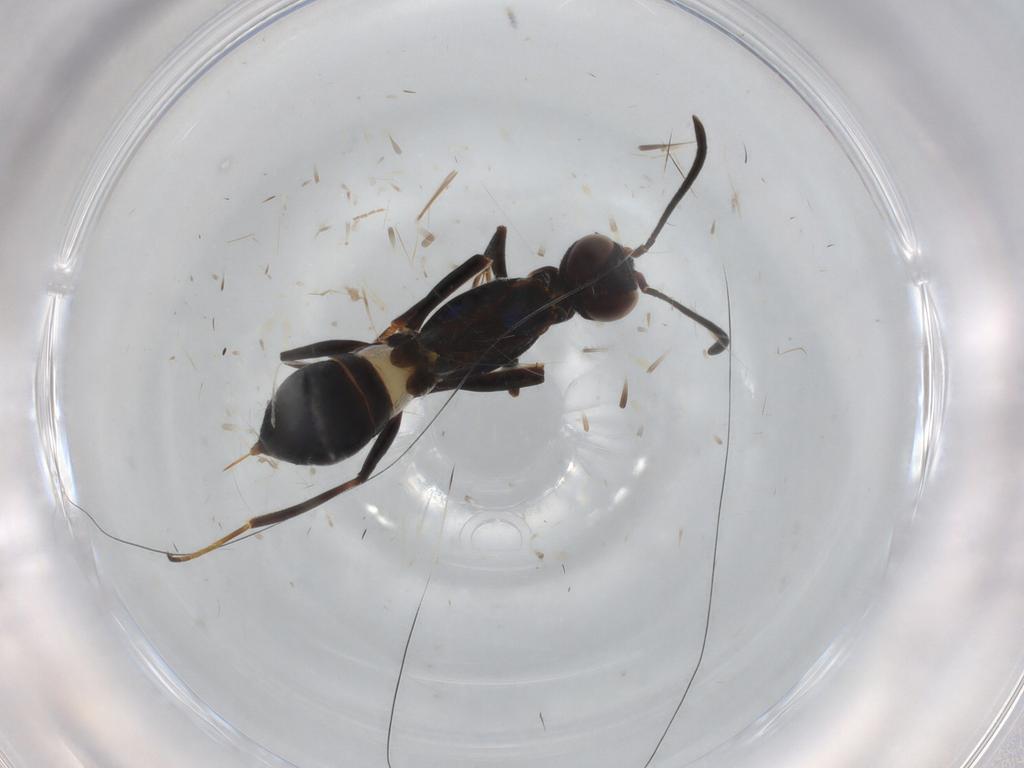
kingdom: Animalia
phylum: Arthropoda
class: Insecta
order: Hymenoptera
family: Eupelmidae
